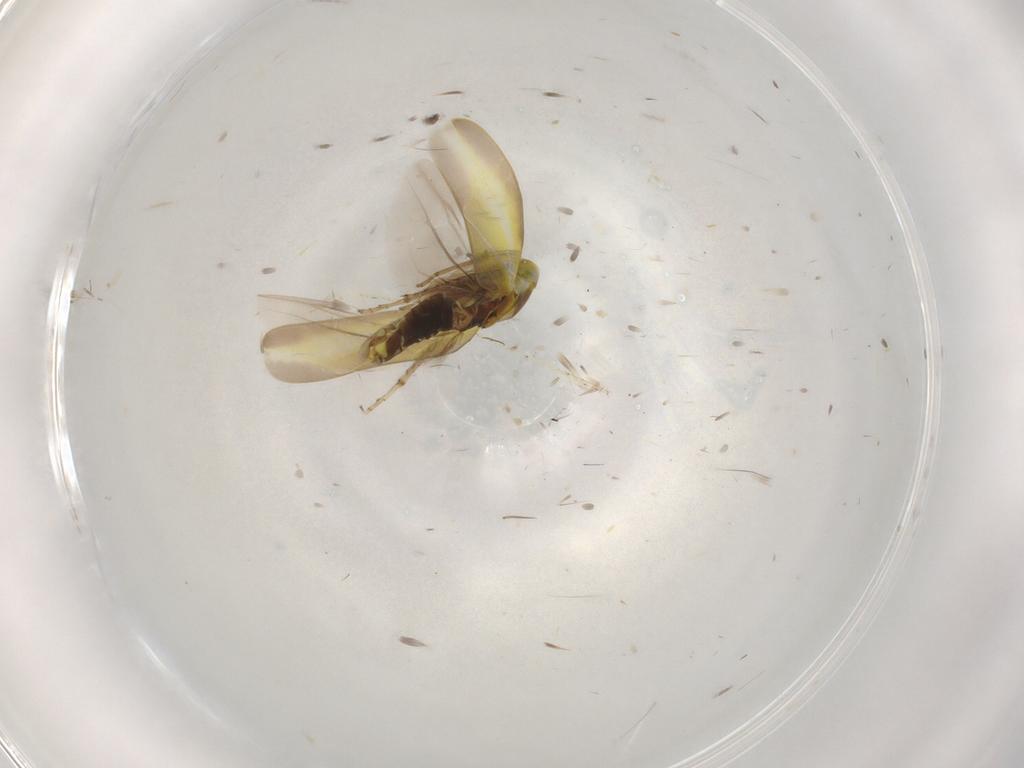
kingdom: Animalia
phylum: Arthropoda
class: Insecta
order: Hemiptera
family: Cicadellidae
